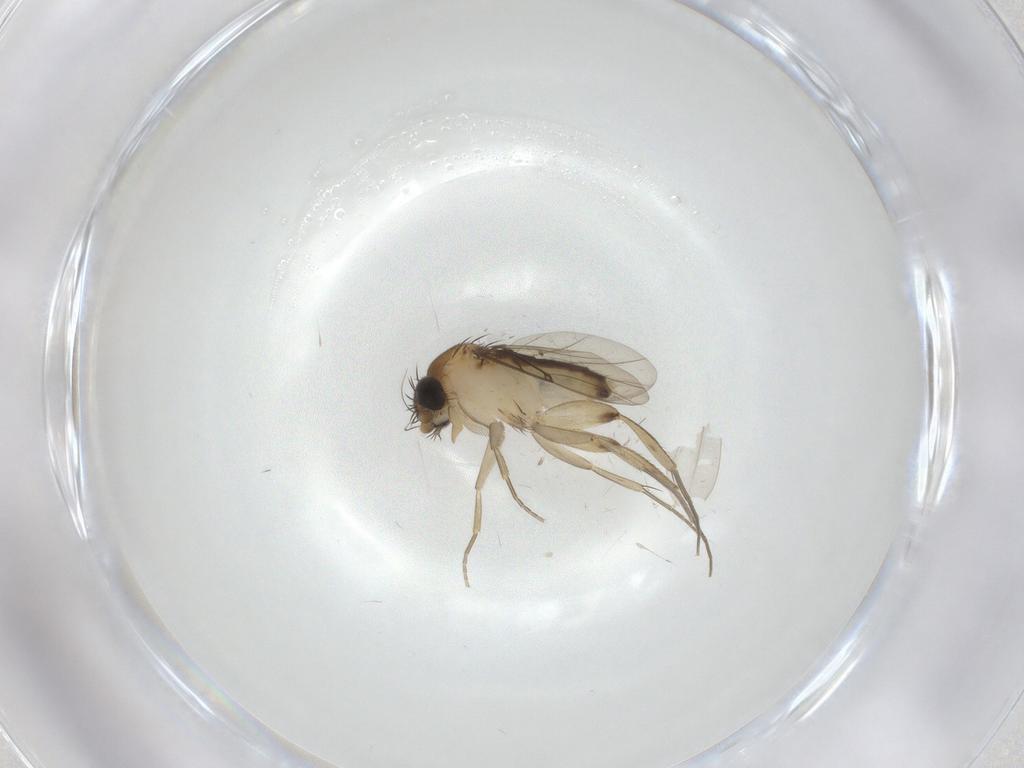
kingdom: Animalia
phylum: Arthropoda
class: Insecta
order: Diptera
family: Phoridae
